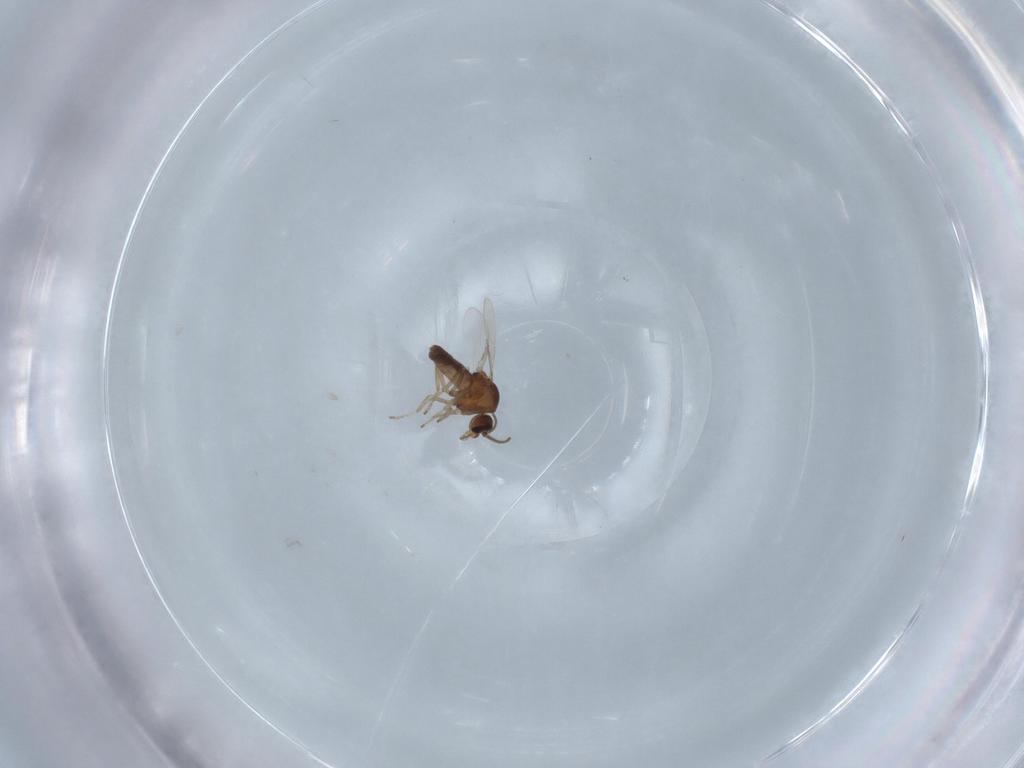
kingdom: Animalia
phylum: Arthropoda
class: Insecta
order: Diptera
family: Ceratopogonidae
